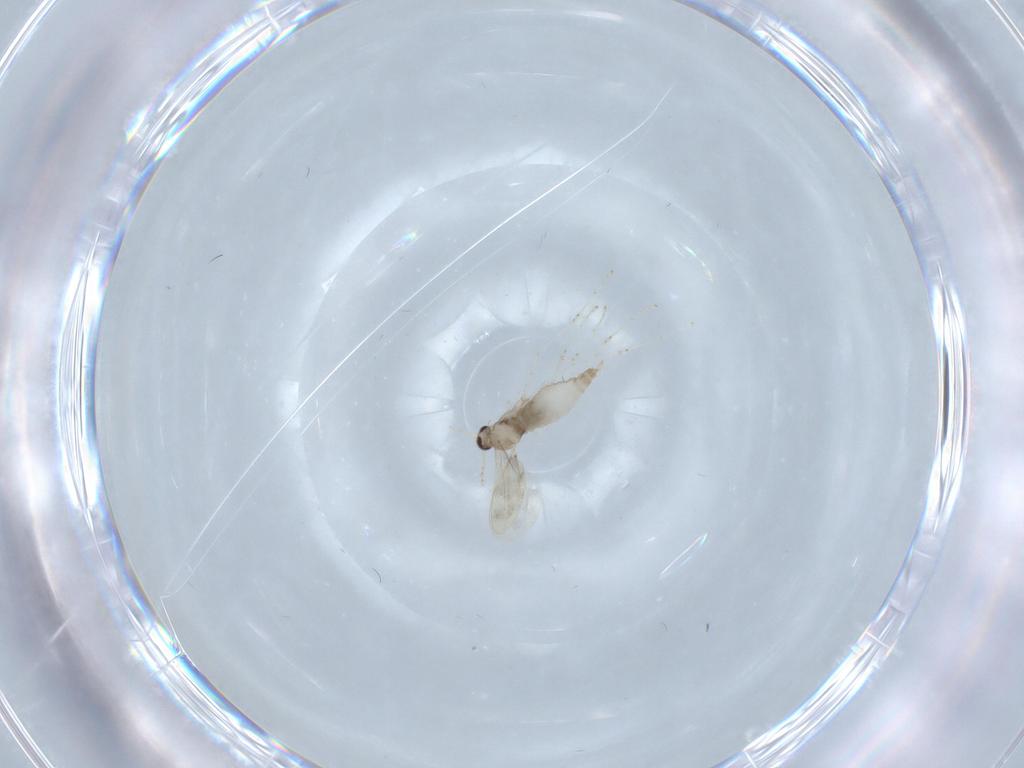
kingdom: Animalia
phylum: Arthropoda
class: Insecta
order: Diptera
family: Cecidomyiidae
